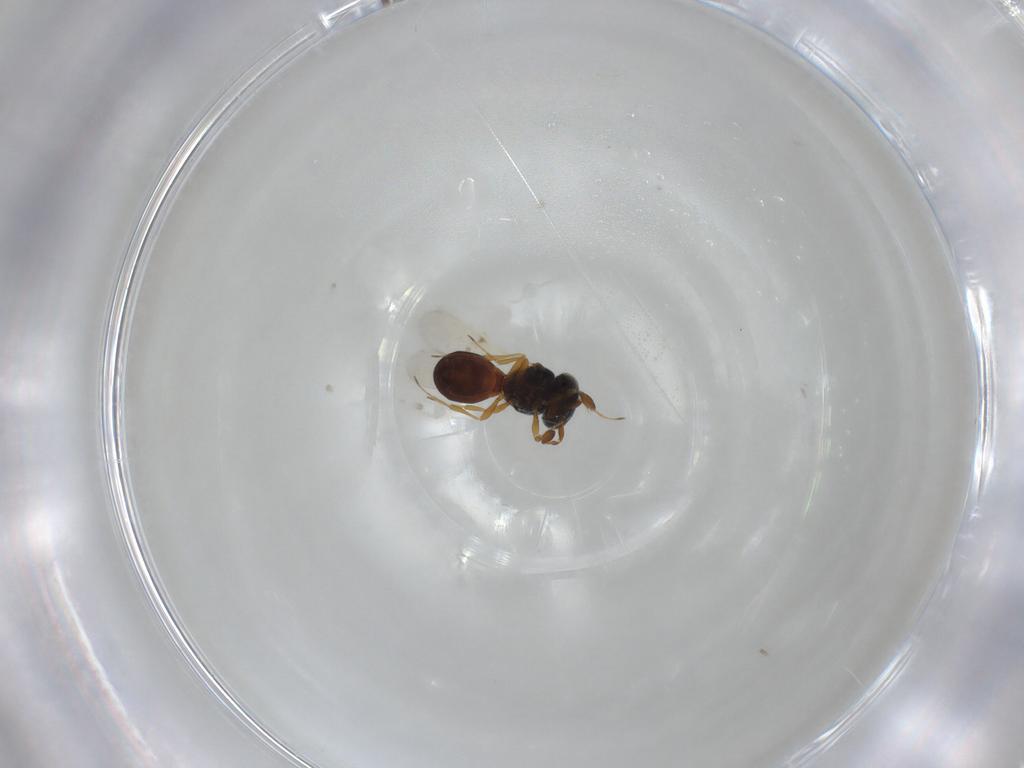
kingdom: Animalia
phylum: Arthropoda
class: Insecta
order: Hymenoptera
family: Scelionidae
